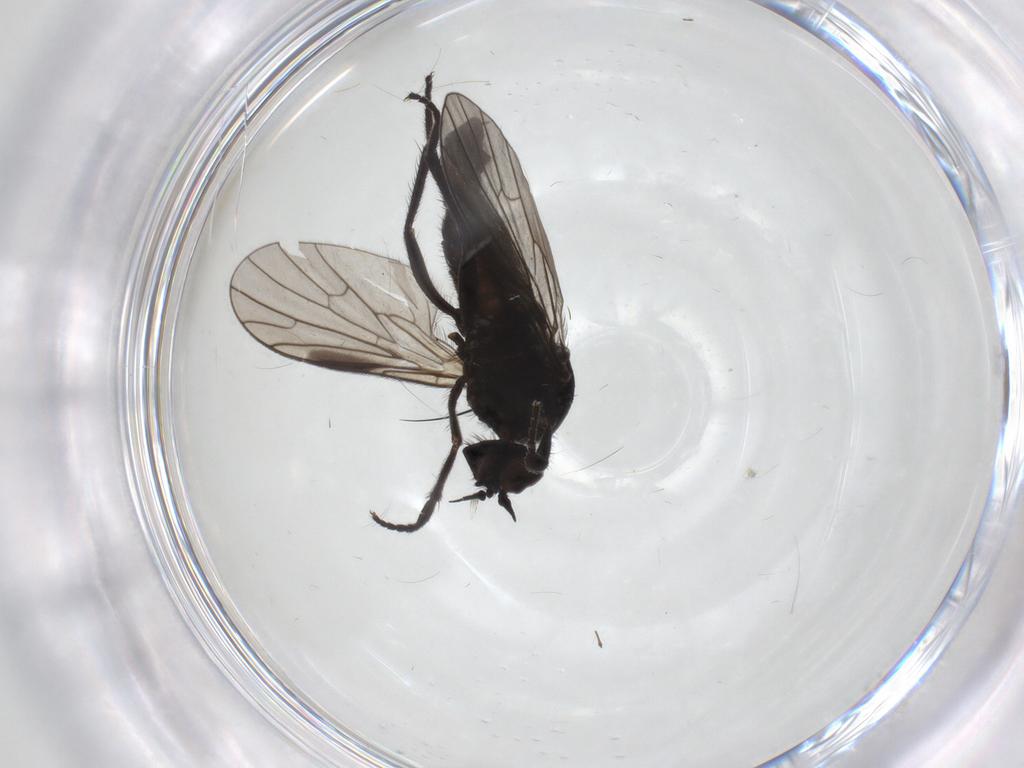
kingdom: Animalia
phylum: Arthropoda
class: Insecta
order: Diptera
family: Empididae
